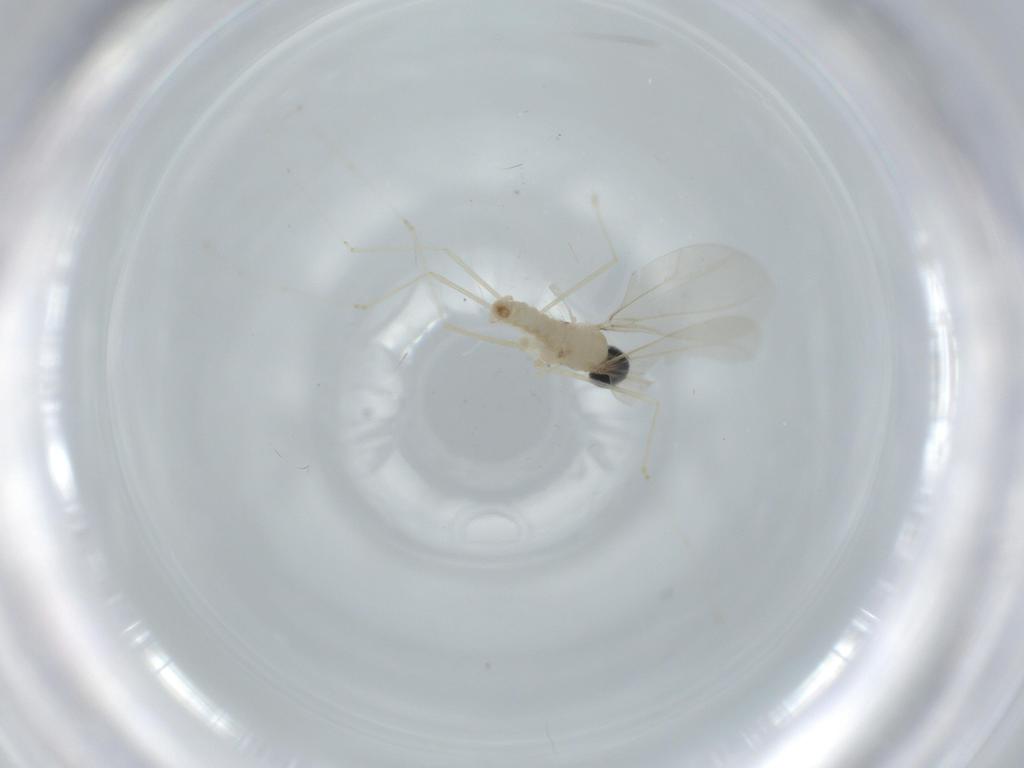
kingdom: Animalia
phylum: Arthropoda
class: Insecta
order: Diptera
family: Cecidomyiidae
